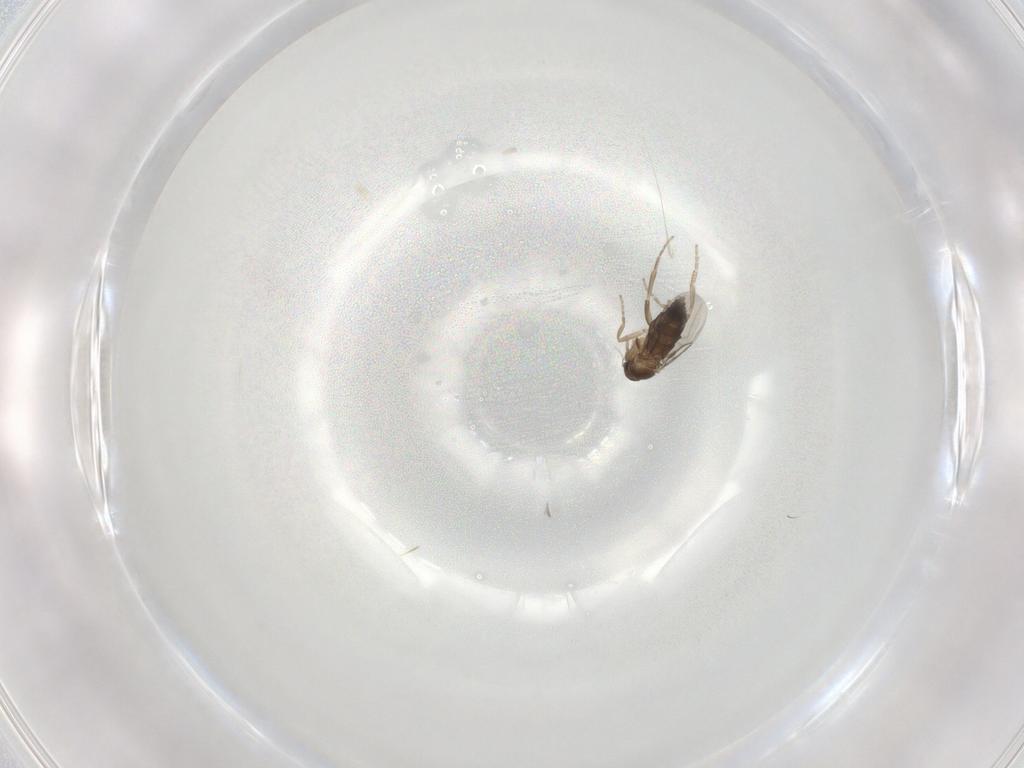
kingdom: Animalia
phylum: Arthropoda
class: Insecta
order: Diptera
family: Phoridae
